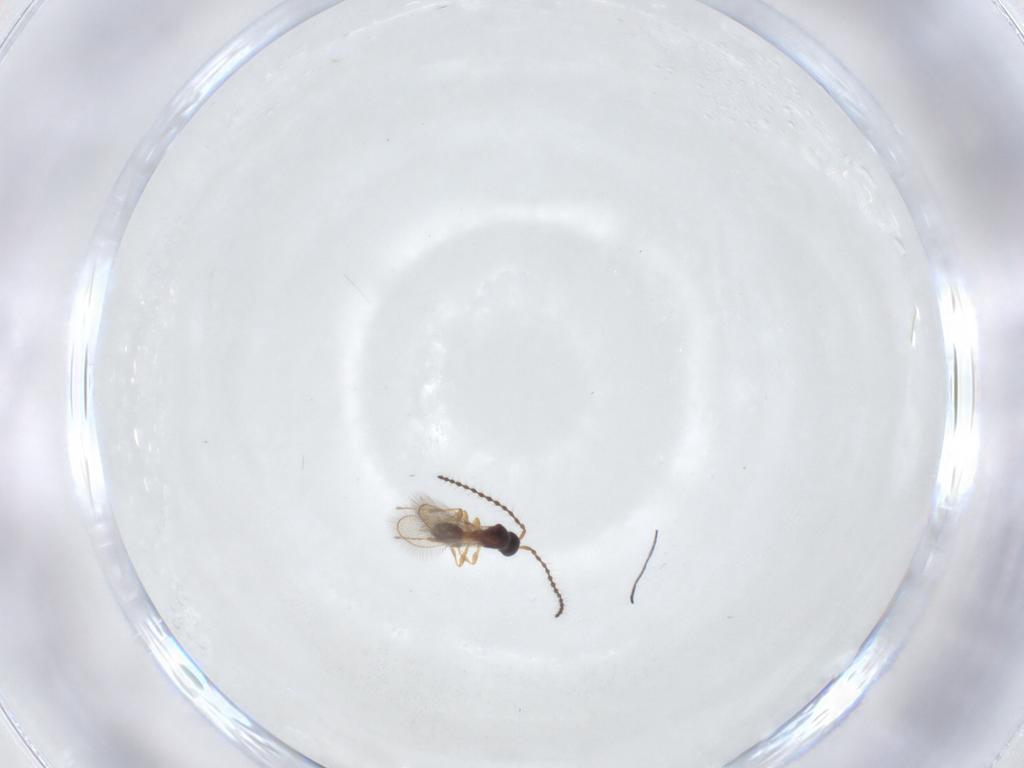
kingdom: Animalia
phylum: Arthropoda
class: Insecta
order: Hymenoptera
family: Diapriidae
